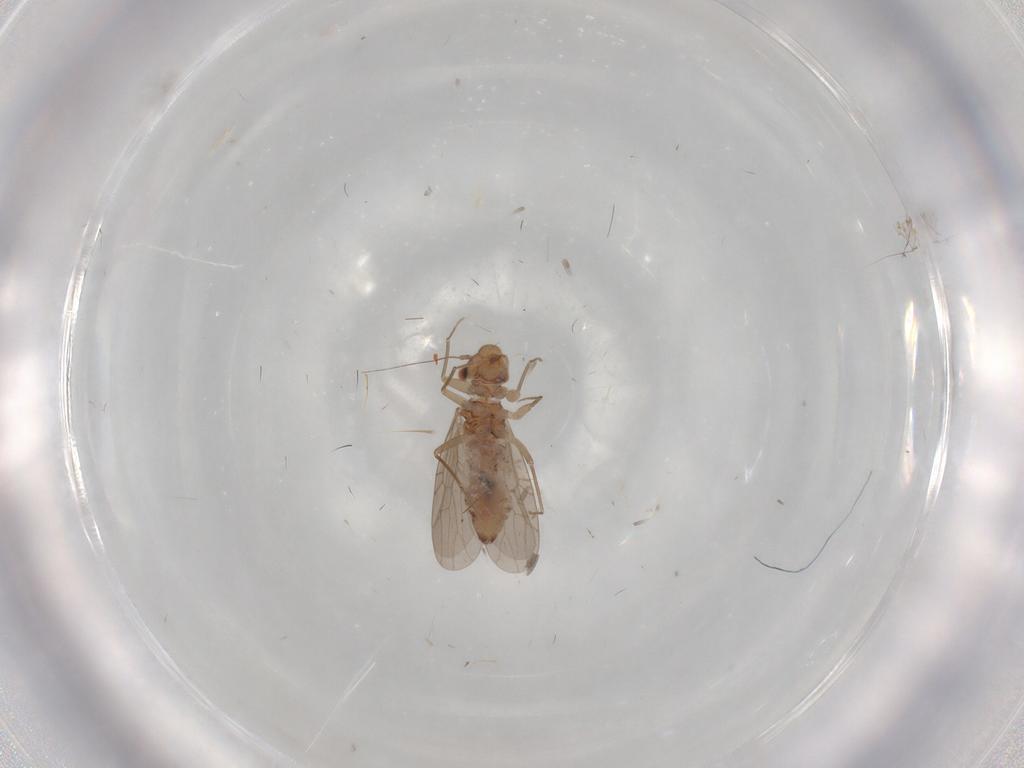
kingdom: Animalia
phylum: Arthropoda
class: Insecta
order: Psocodea
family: Lepidopsocidae
